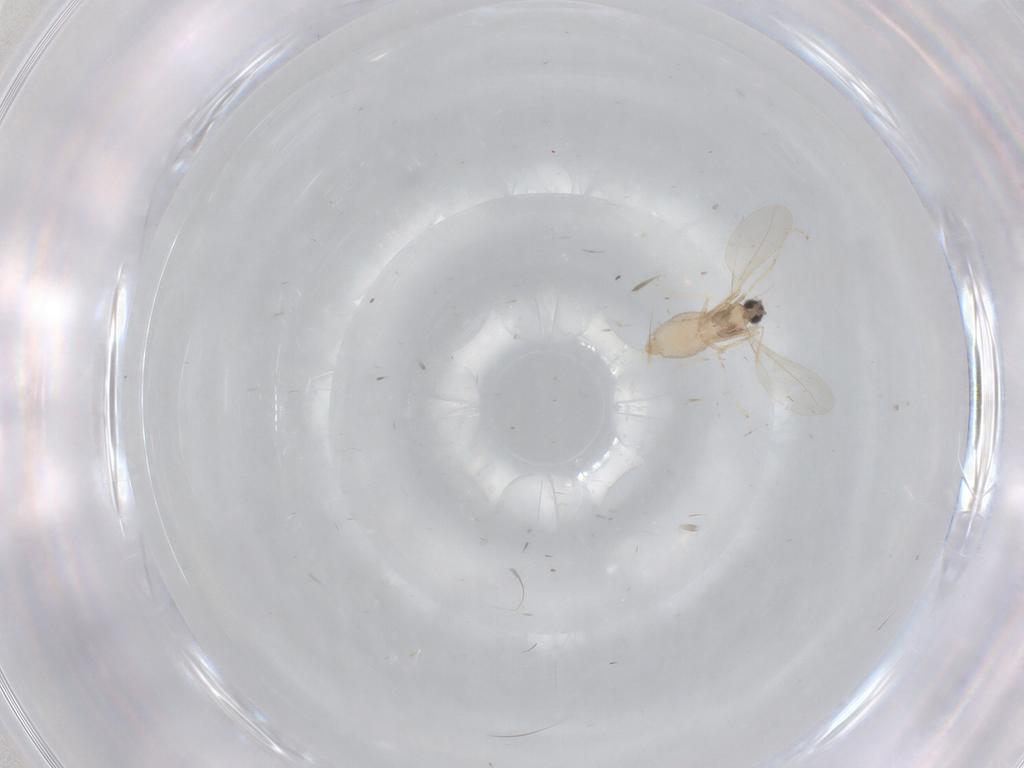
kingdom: Animalia
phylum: Arthropoda
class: Insecta
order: Diptera
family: Cecidomyiidae
